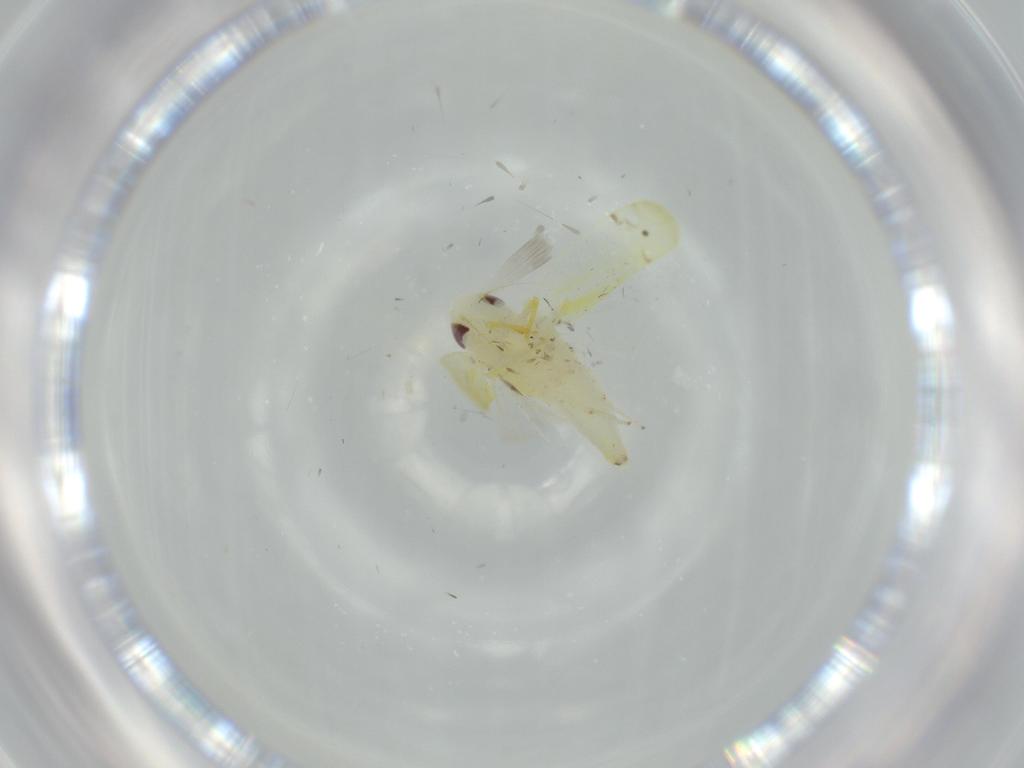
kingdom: Animalia
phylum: Arthropoda
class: Insecta
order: Hemiptera
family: Cicadellidae
